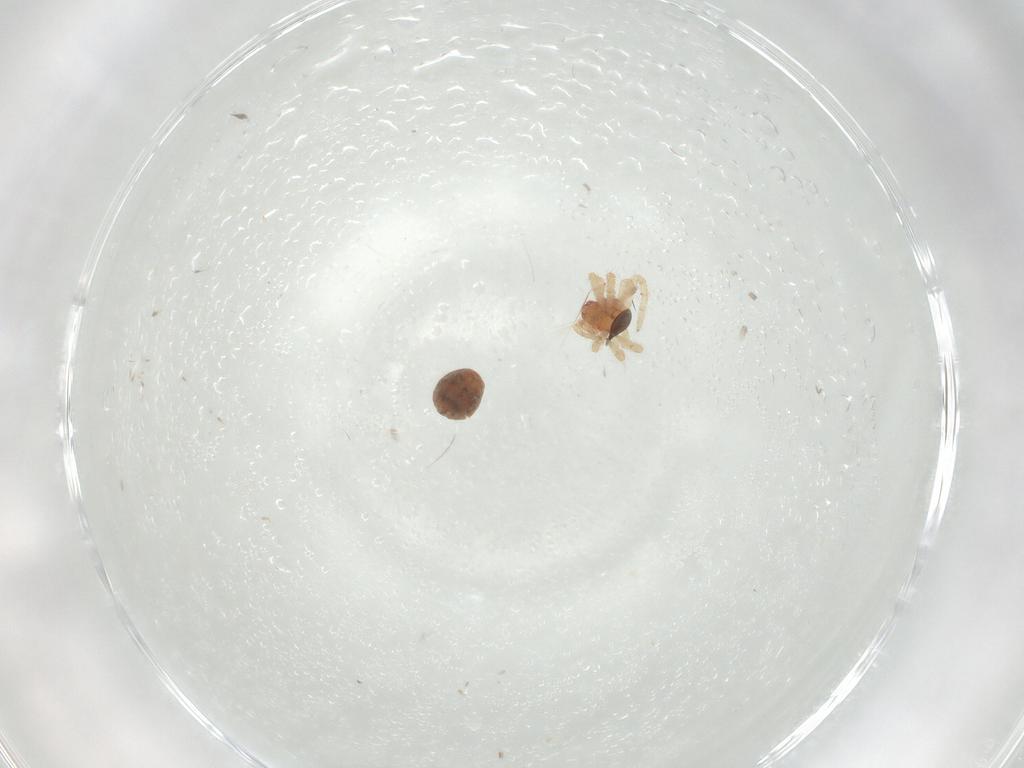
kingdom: Animalia
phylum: Arthropoda
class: Arachnida
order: Araneae
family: Theridiidae
